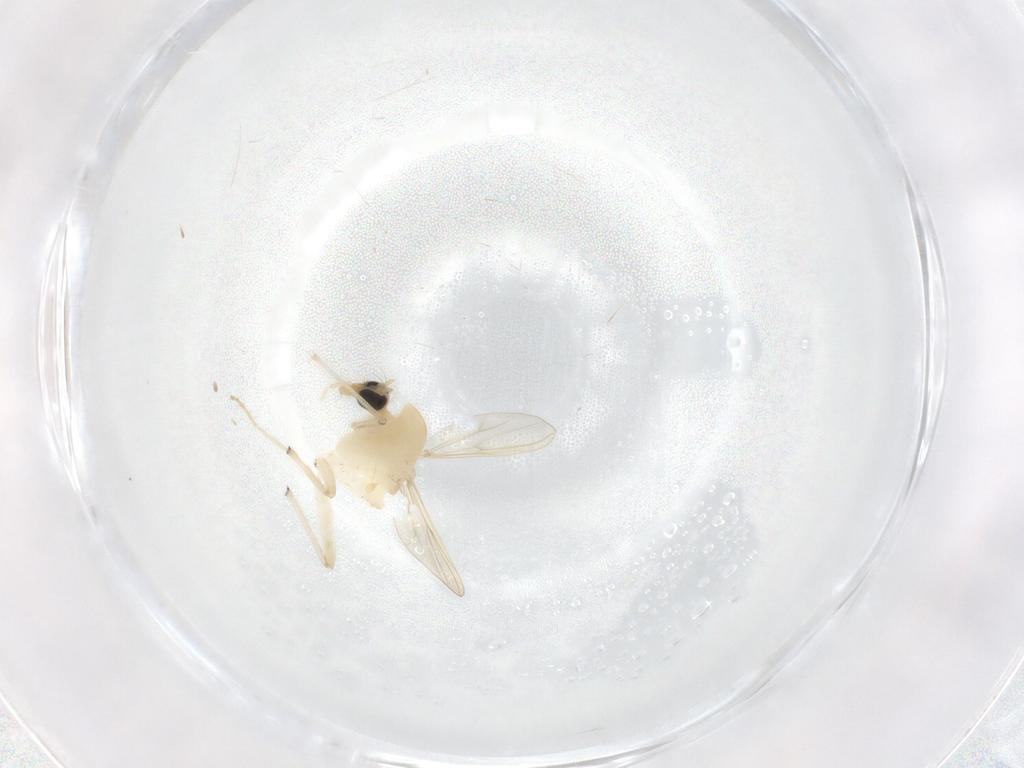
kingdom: Animalia
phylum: Arthropoda
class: Insecta
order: Diptera
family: Chironomidae
